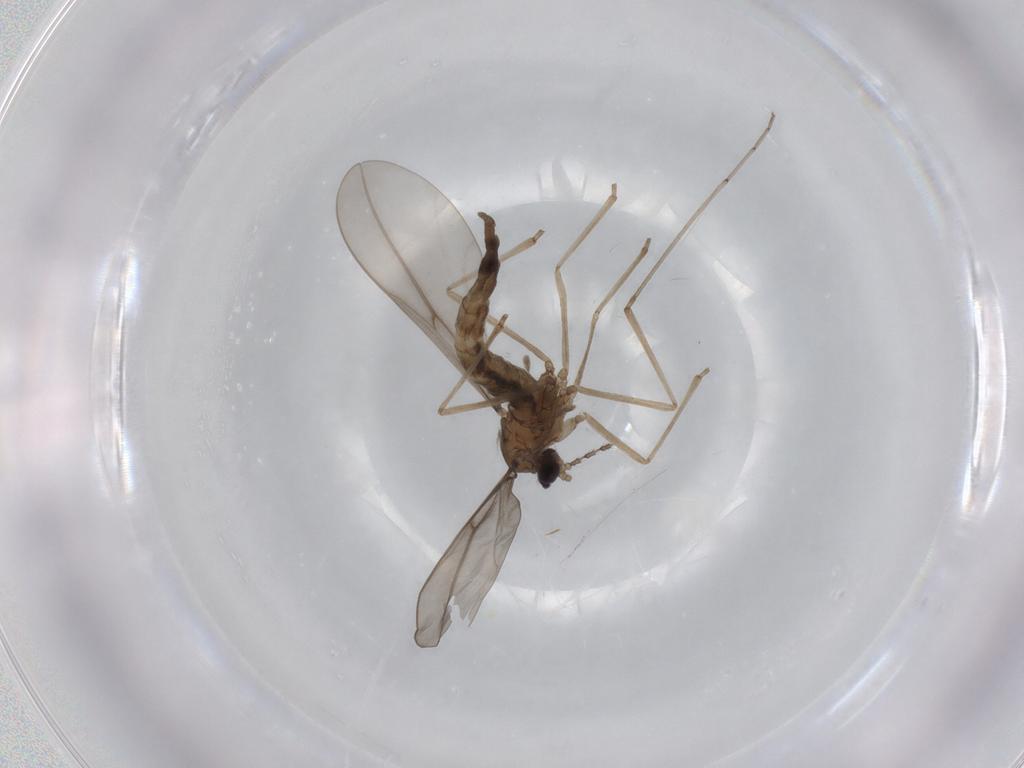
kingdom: Animalia
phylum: Arthropoda
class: Insecta
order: Diptera
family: Cecidomyiidae
